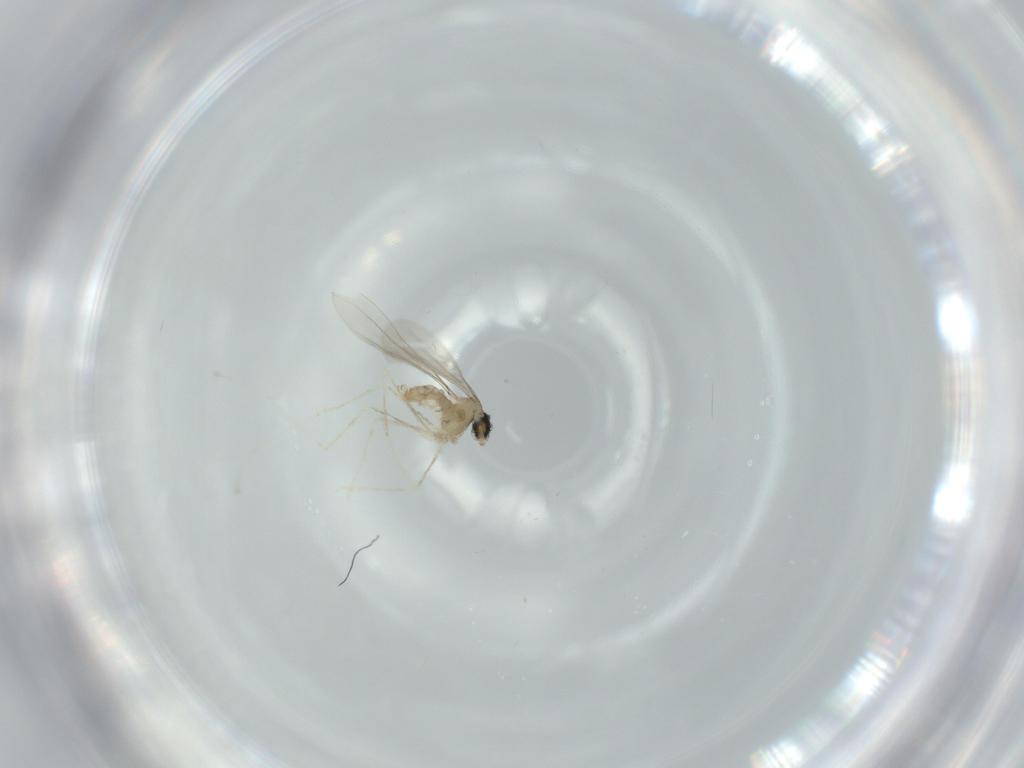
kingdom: Animalia
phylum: Arthropoda
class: Insecta
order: Diptera
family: Cecidomyiidae
